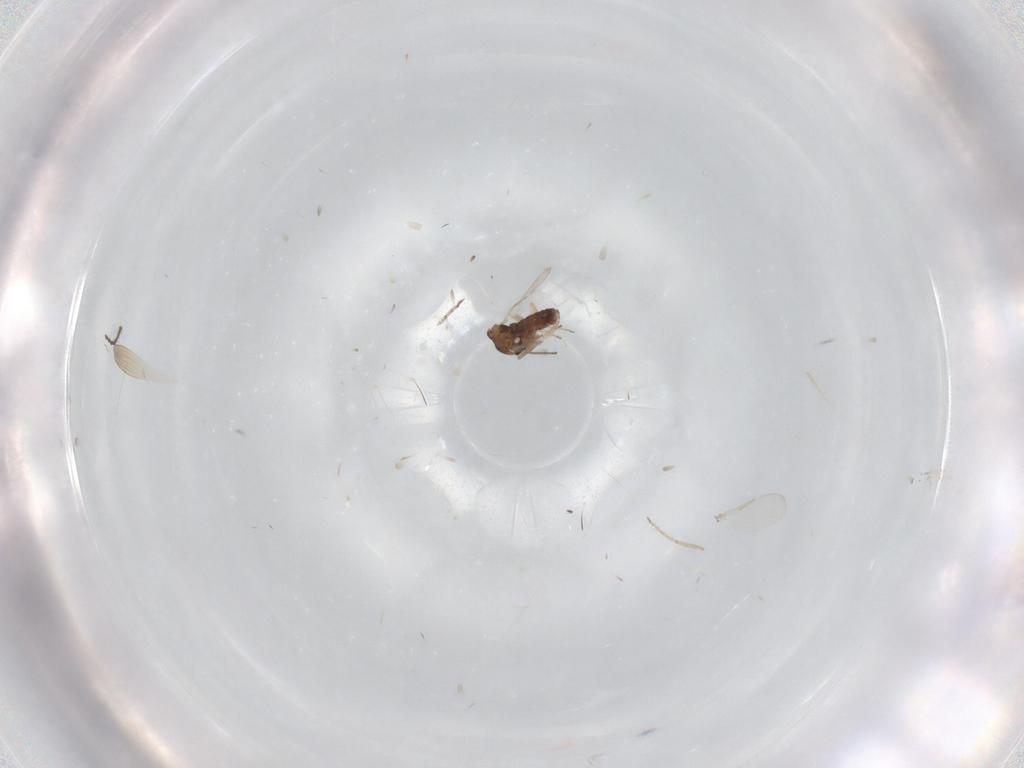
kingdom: Animalia
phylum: Arthropoda
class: Insecta
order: Diptera
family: Ceratopogonidae
